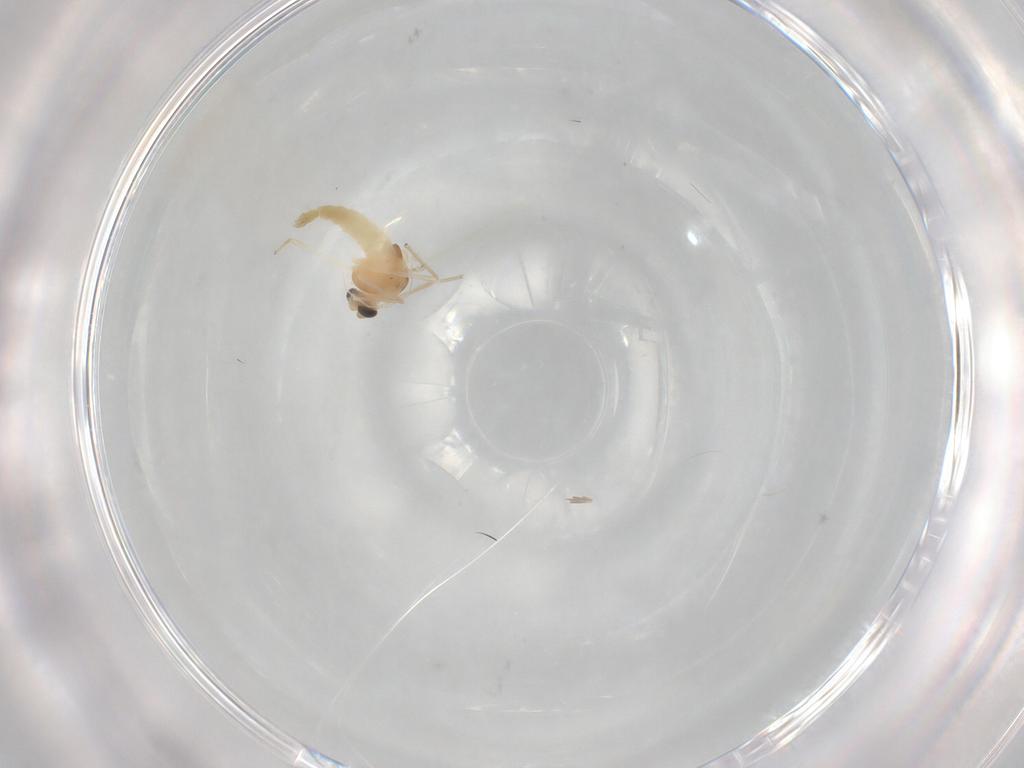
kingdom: Animalia
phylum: Arthropoda
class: Insecta
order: Diptera
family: Chironomidae
